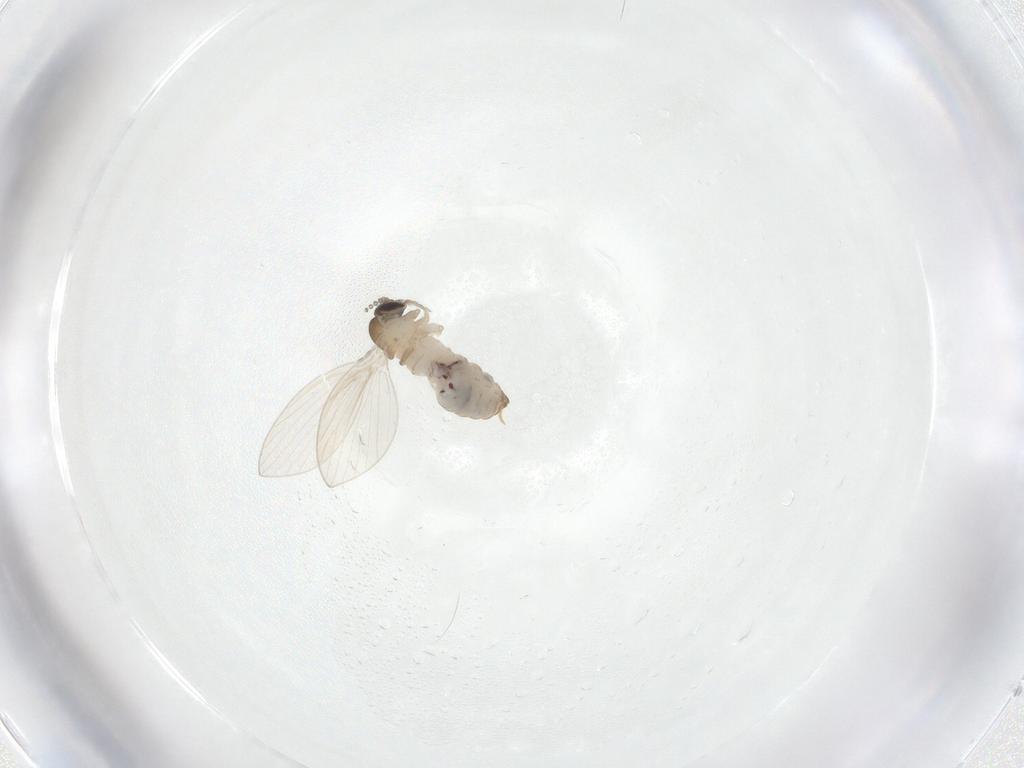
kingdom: Animalia
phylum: Arthropoda
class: Insecta
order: Diptera
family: Psychodidae
